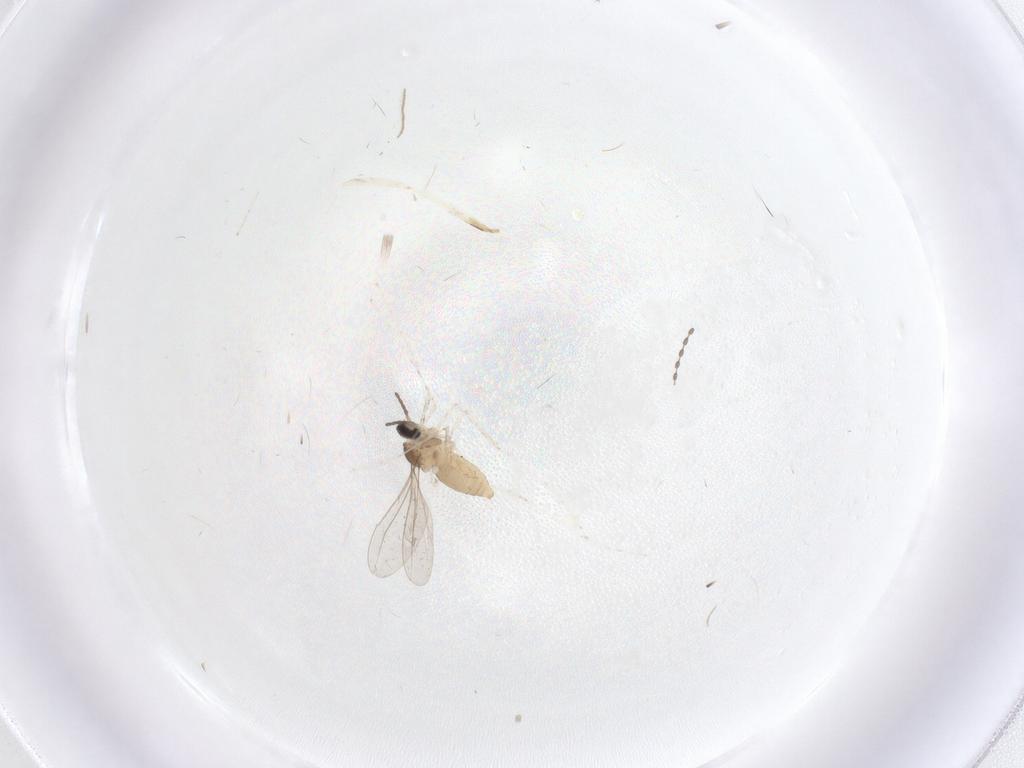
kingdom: Animalia
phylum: Arthropoda
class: Insecta
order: Diptera
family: Cecidomyiidae
